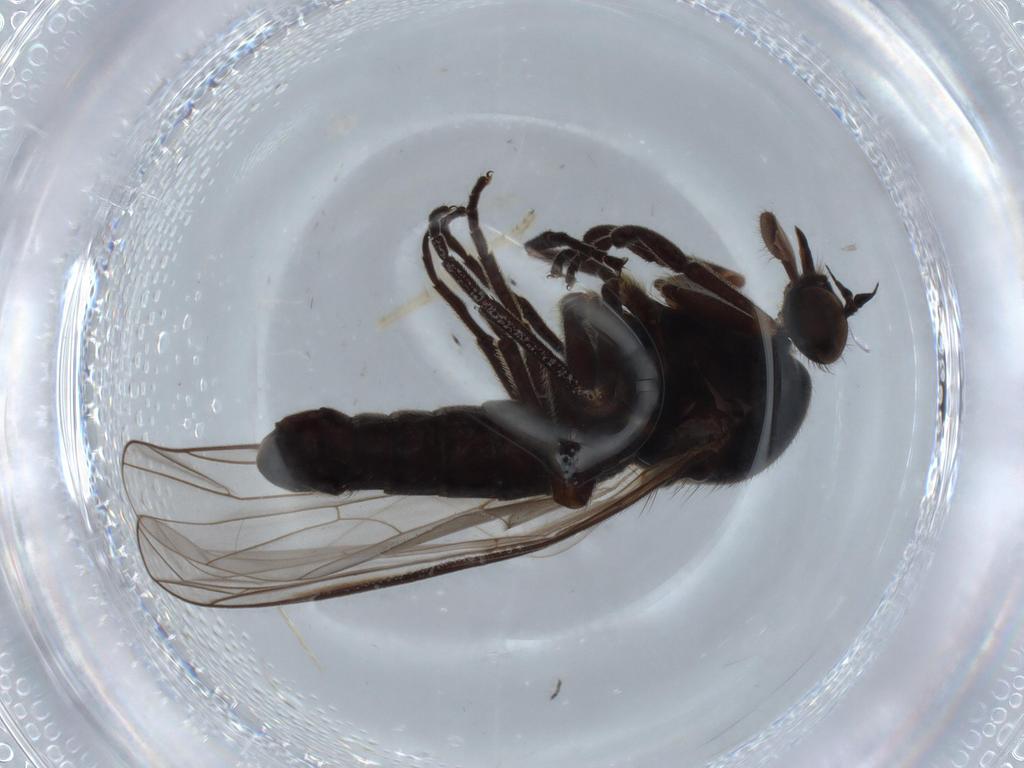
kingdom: Animalia
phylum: Arthropoda
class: Insecta
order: Diptera
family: Empididae
